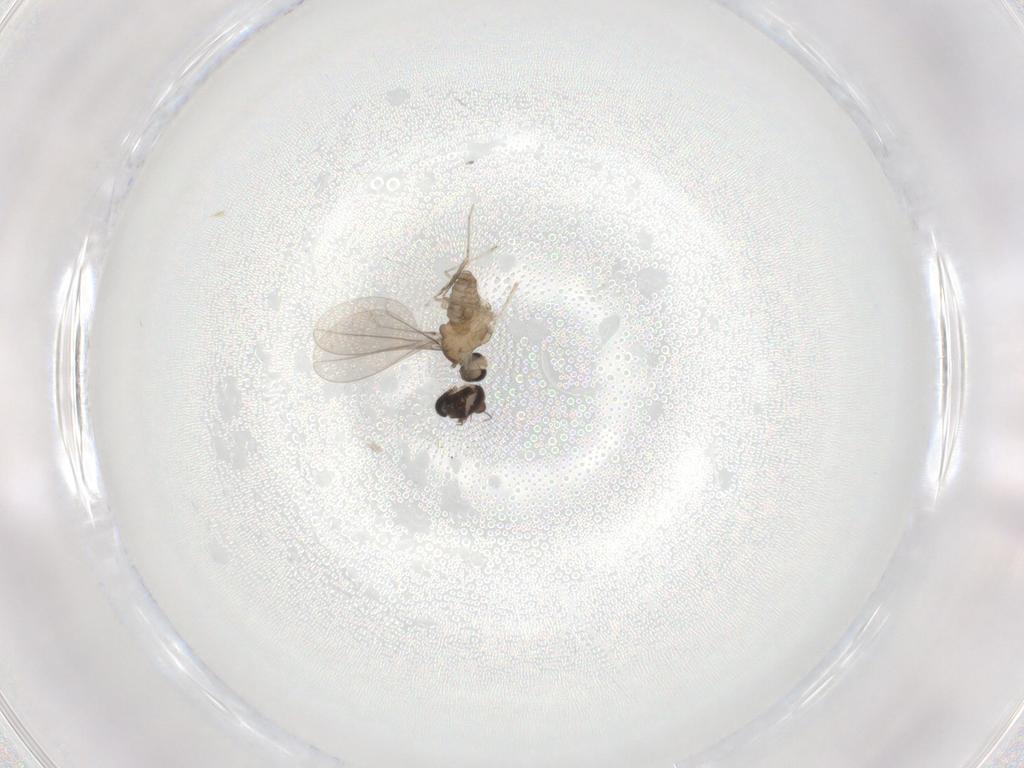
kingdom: Animalia
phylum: Arthropoda
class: Insecta
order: Diptera
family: Phoridae
